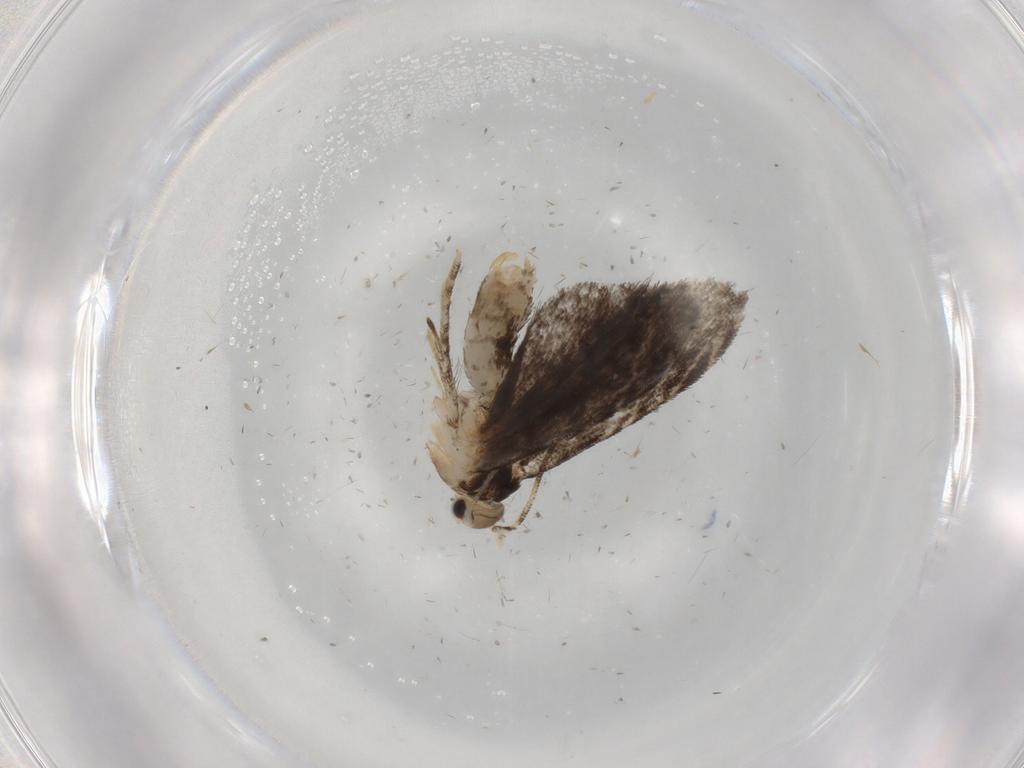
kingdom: Animalia
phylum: Arthropoda
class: Insecta
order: Lepidoptera
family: Tineidae
